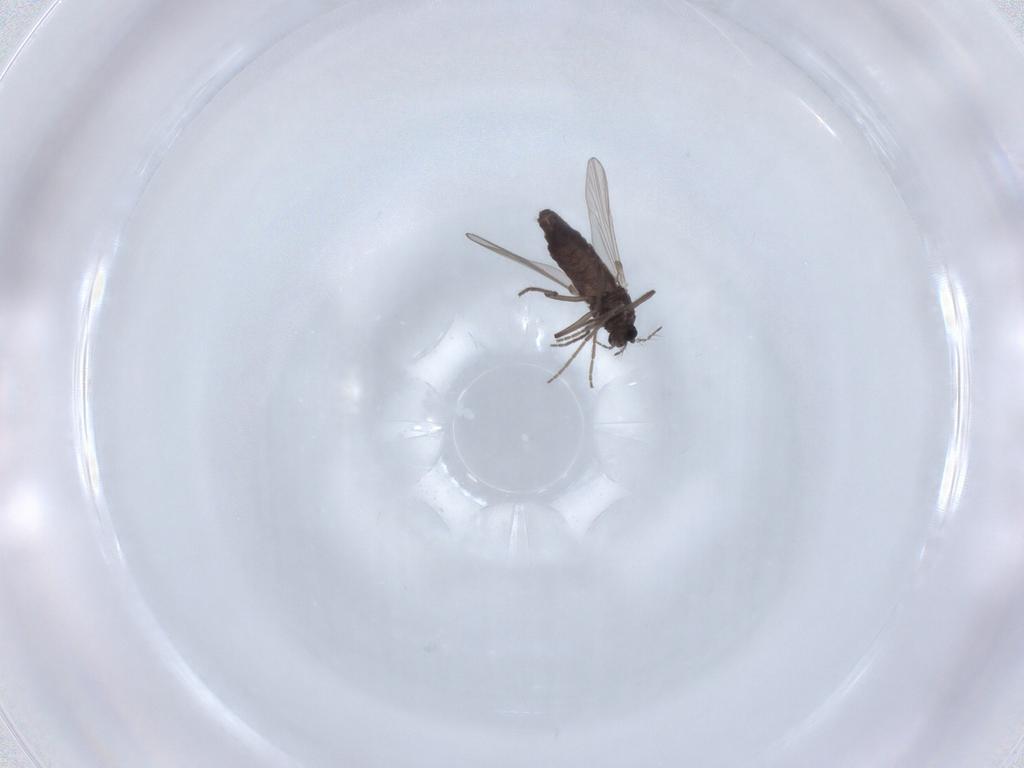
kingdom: Animalia
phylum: Arthropoda
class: Insecta
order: Diptera
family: Chironomidae
